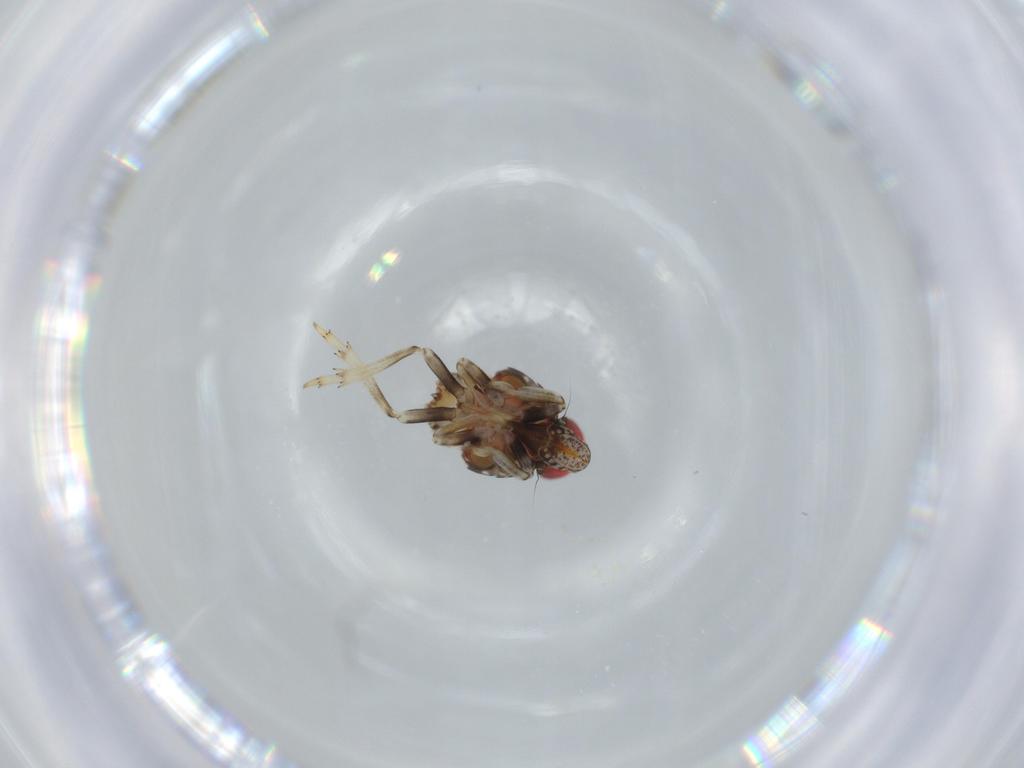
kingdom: Animalia
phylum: Arthropoda
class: Insecta
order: Hemiptera
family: Issidae
